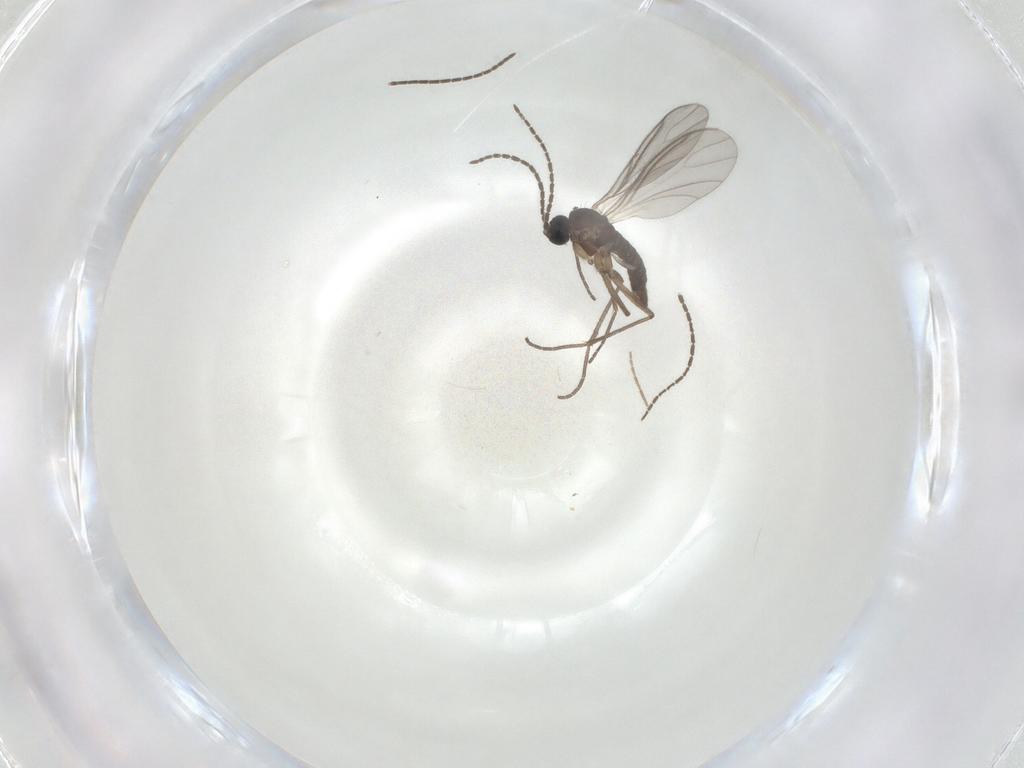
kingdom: Animalia
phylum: Arthropoda
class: Insecta
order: Diptera
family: Sciaridae
